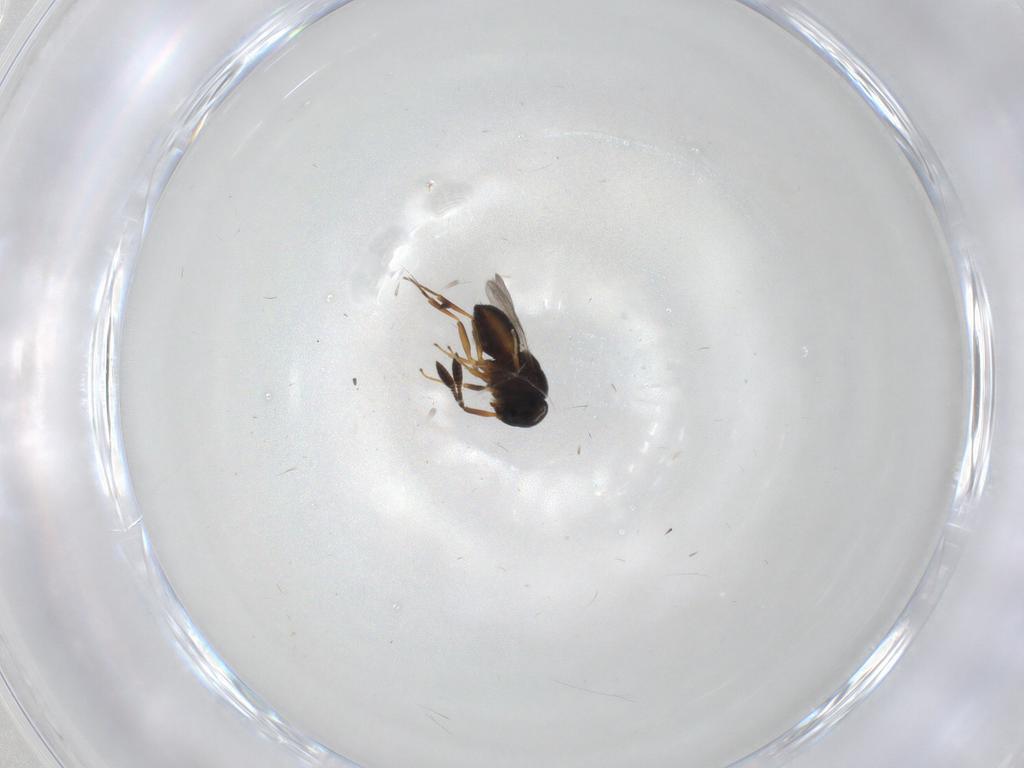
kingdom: Animalia
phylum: Arthropoda
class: Insecta
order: Hymenoptera
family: Scelionidae
